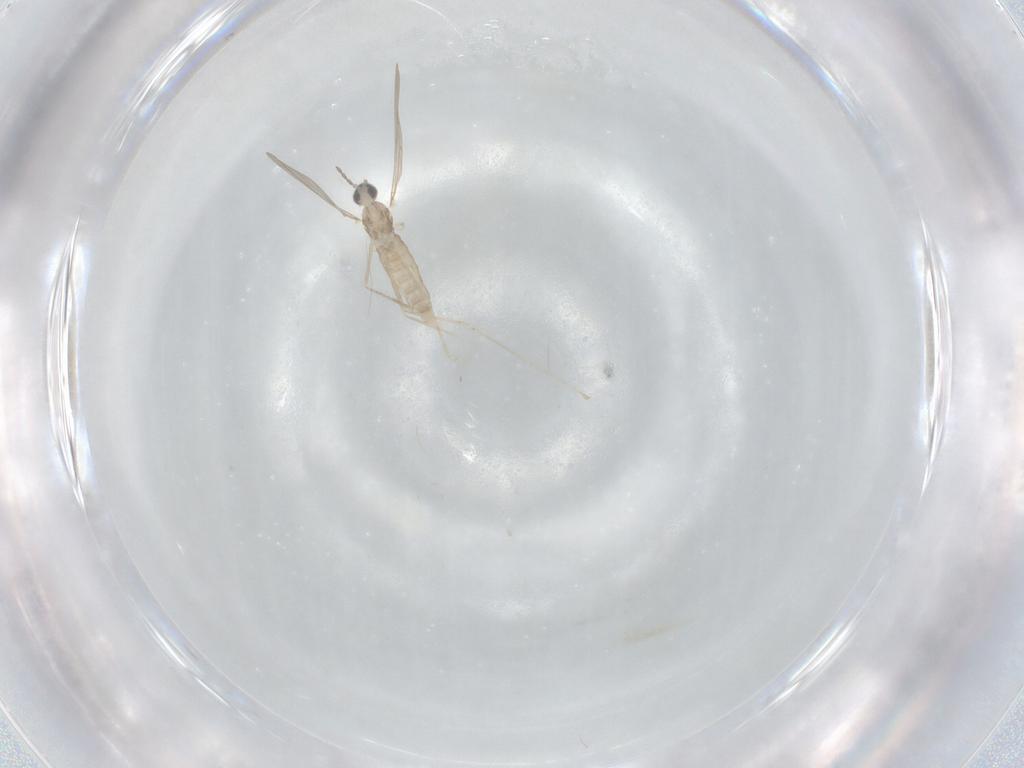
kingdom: Animalia
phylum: Arthropoda
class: Insecta
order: Diptera
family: Cecidomyiidae
